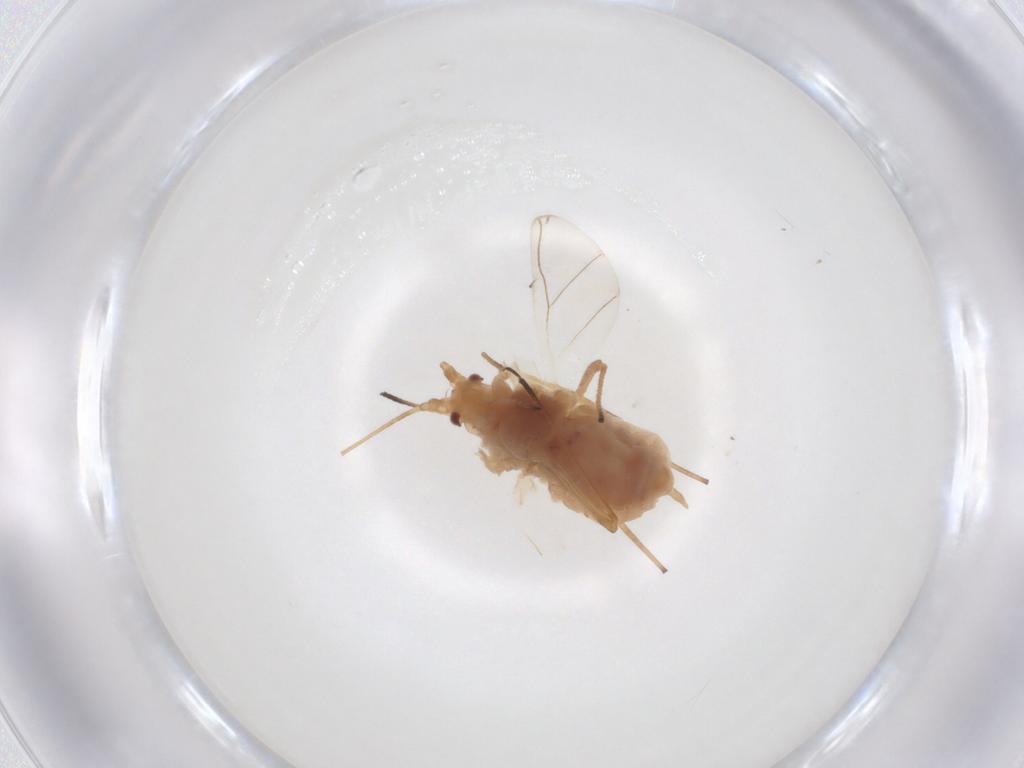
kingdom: Animalia
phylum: Arthropoda
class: Insecta
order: Hemiptera
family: Aphididae
